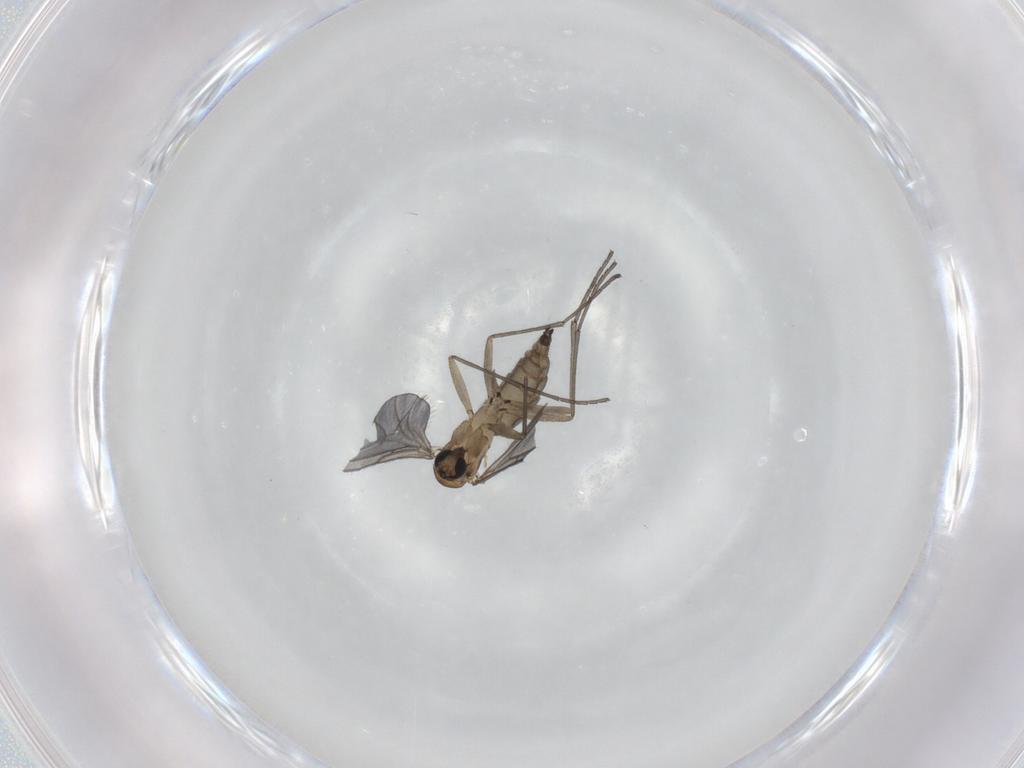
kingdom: Animalia
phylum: Arthropoda
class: Insecta
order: Diptera
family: Sciaridae
